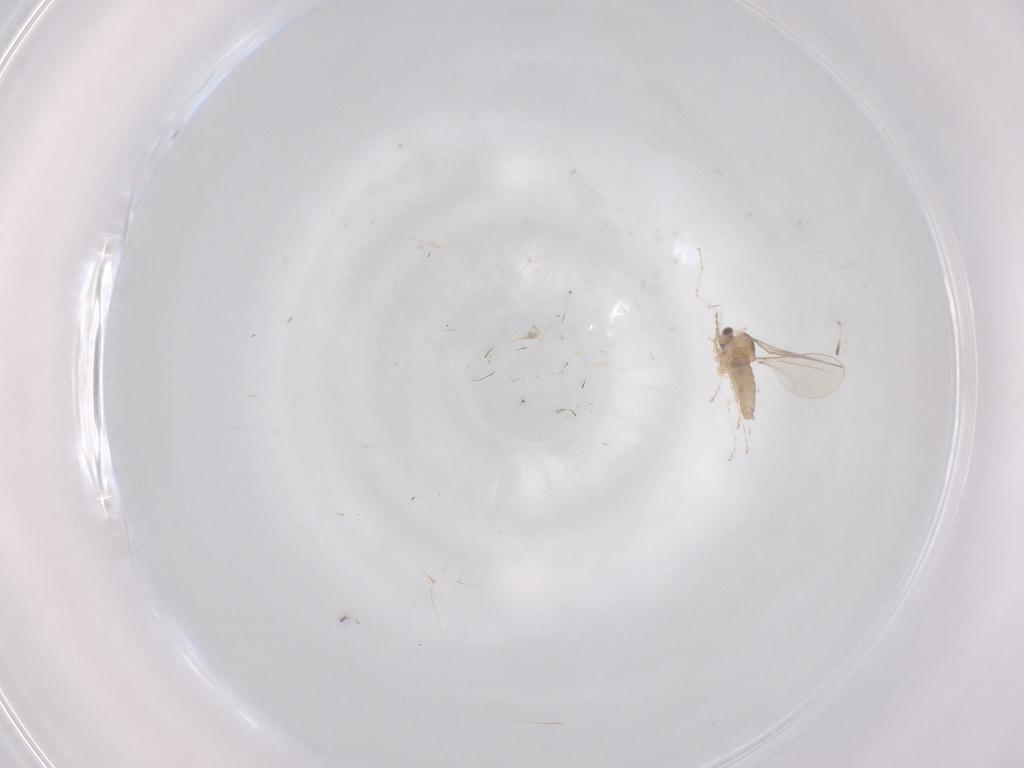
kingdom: Animalia
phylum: Arthropoda
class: Insecta
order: Diptera
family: Cecidomyiidae
